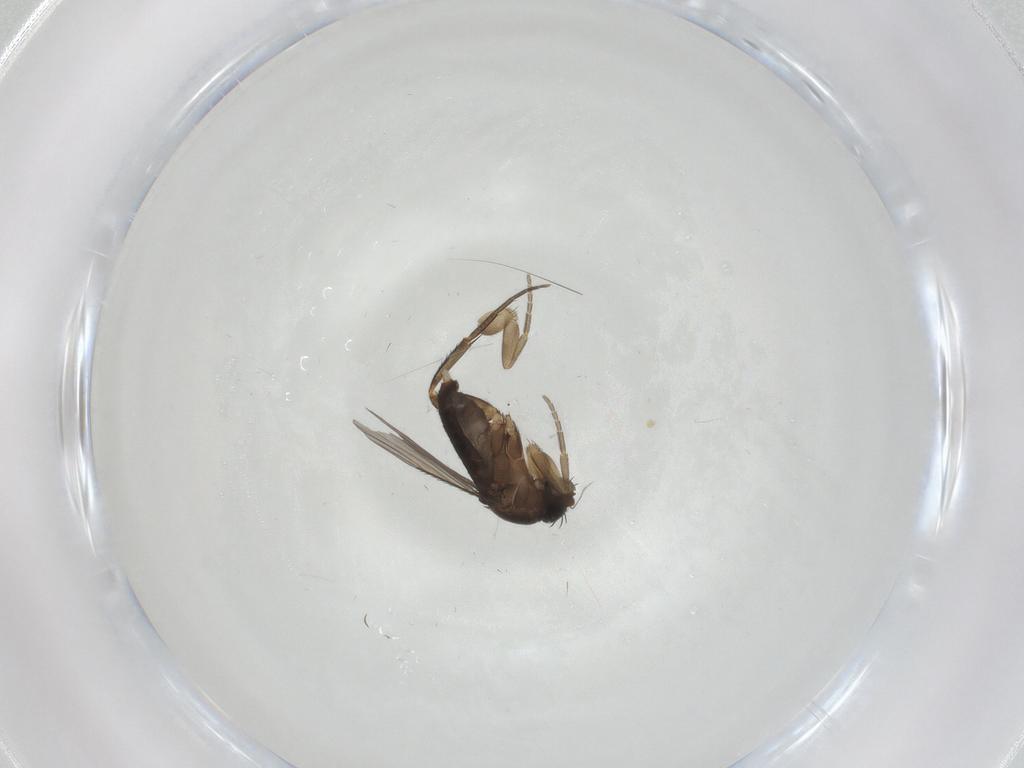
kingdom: Animalia
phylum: Arthropoda
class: Insecta
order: Diptera
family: Phoridae
